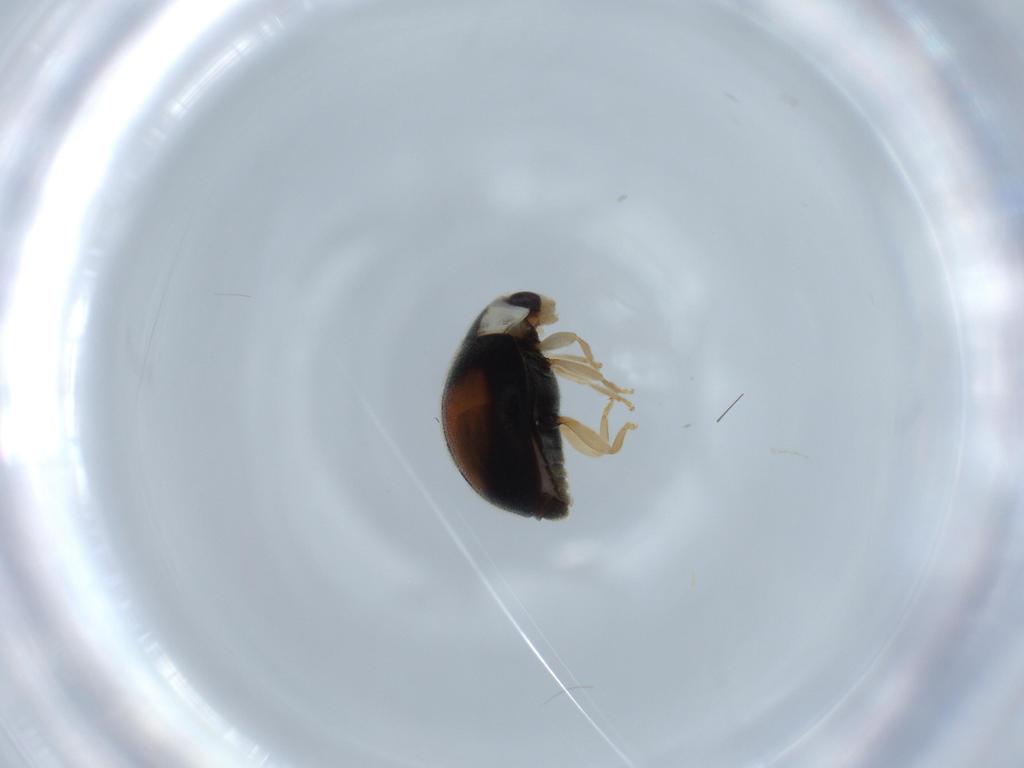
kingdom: Animalia
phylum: Arthropoda
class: Insecta
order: Coleoptera
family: Coccinellidae
